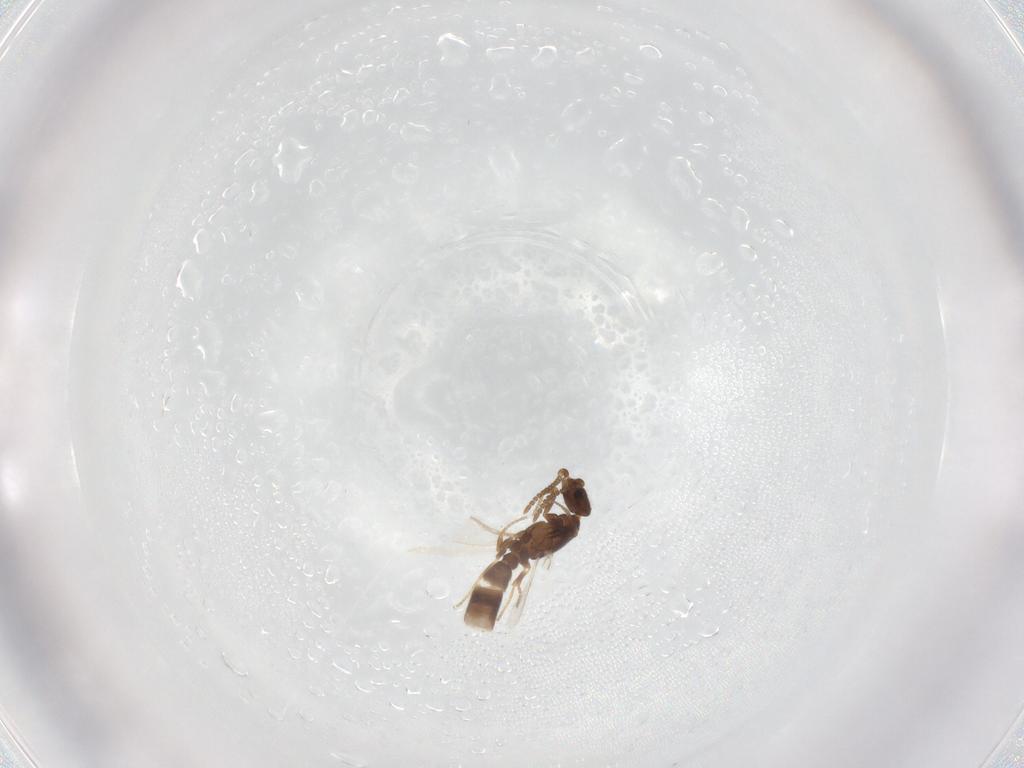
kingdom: Animalia
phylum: Arthropoda
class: Insecta
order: Hymenoptera
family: Formicidae
